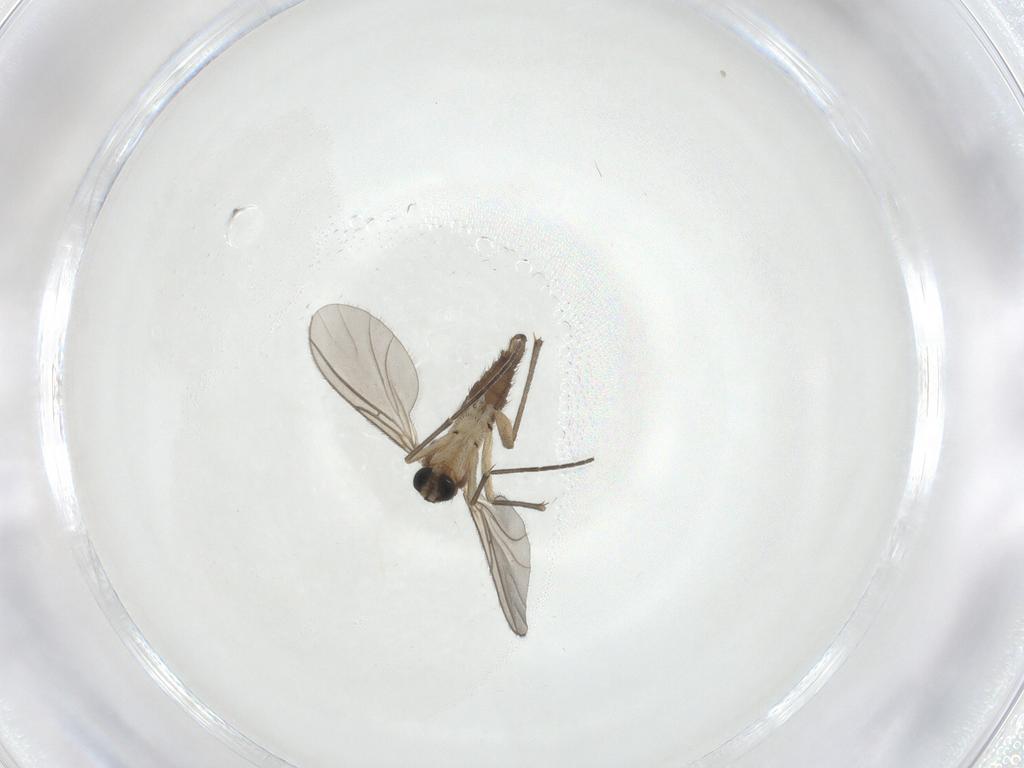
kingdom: Animalia
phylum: Arthropoda
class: Insecta
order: Diptera
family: Sciaridae
